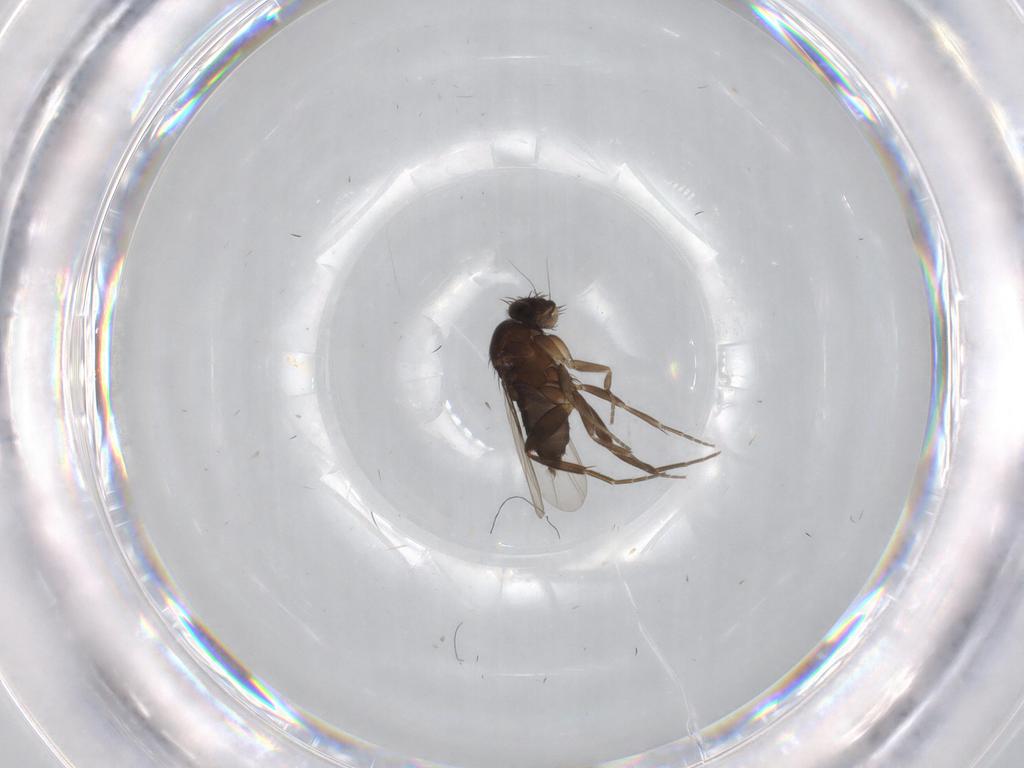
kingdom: Animalia
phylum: Arthropoda
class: Insecta
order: Diptera
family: Phoridae
